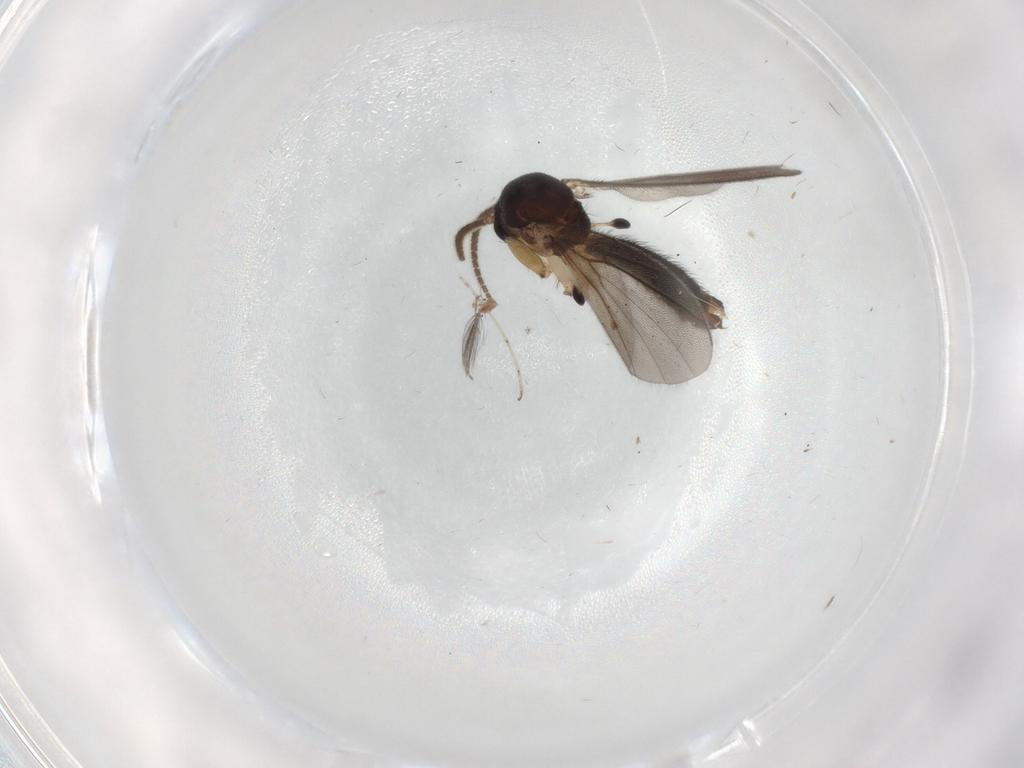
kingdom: Animalia
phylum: Arthropoda
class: Insecta
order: Diptera
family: Mycetophilidae
